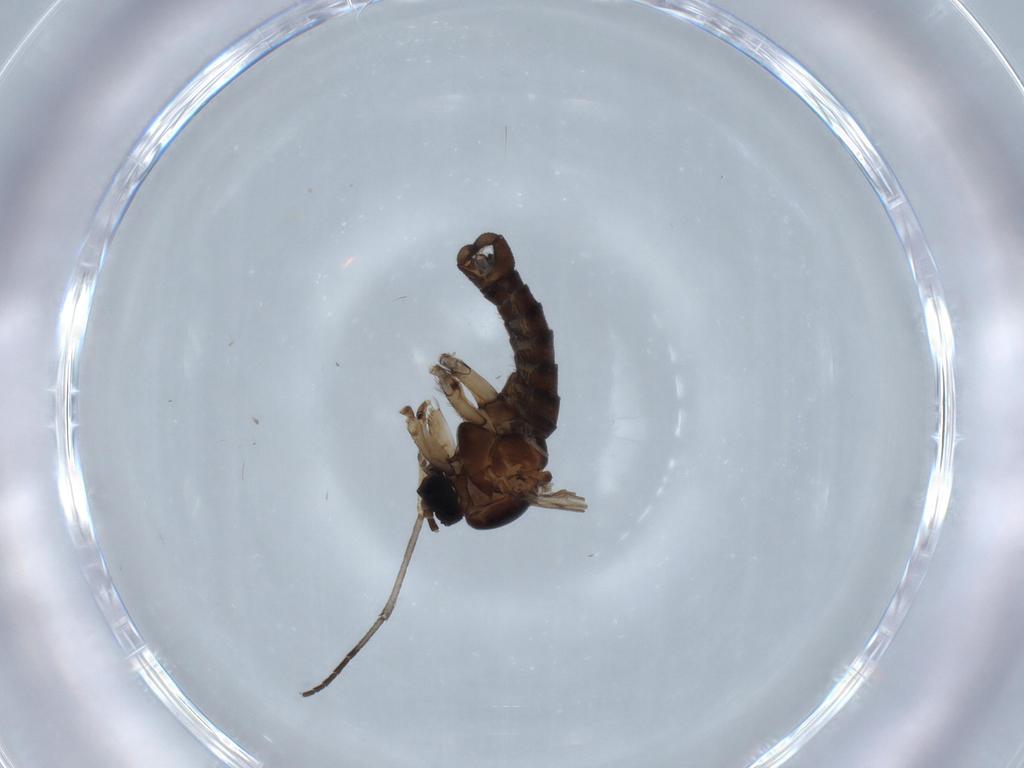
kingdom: Animalia
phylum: Arthropoda
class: Insecta
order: Diptera
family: Sciaridae
